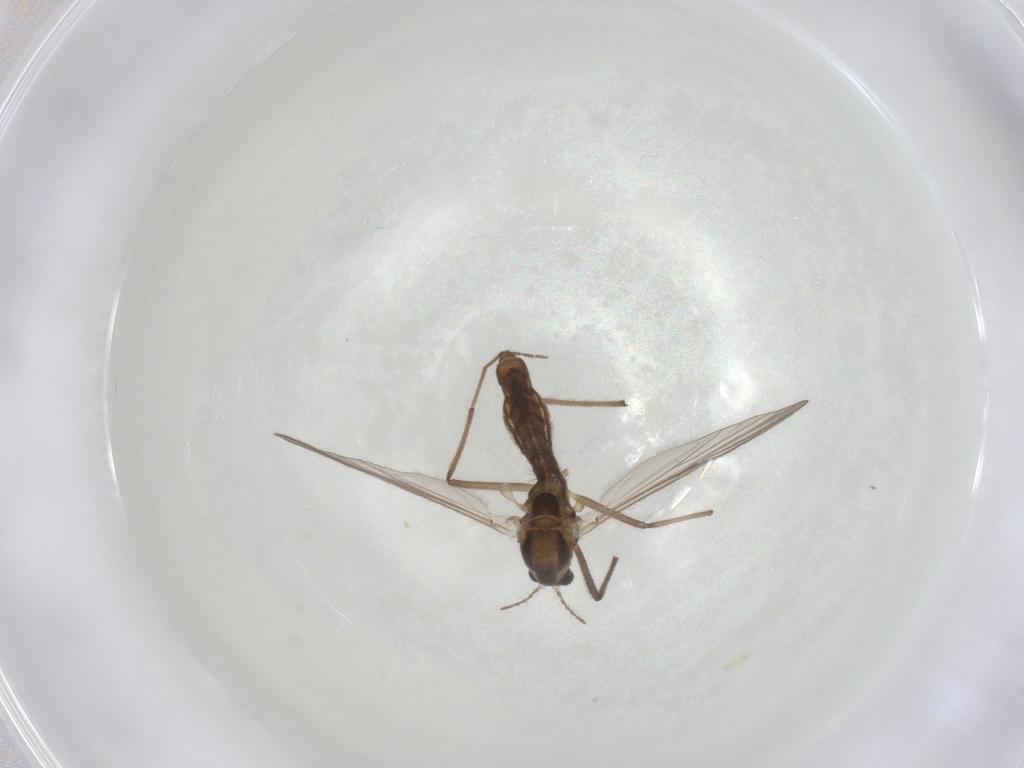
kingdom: Animalia
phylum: Arthropoda
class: Insecta
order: Diptera
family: Chironomidae
